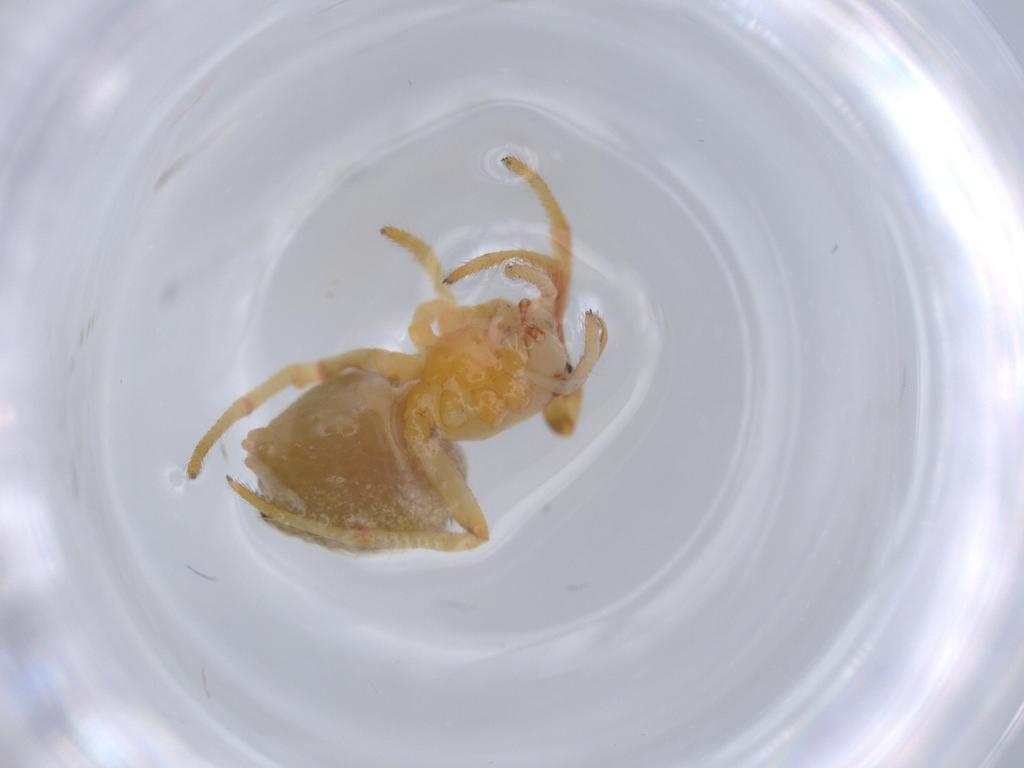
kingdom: Animalia
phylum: Arthropoda
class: Arachnida
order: Araneae
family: Araneidae
